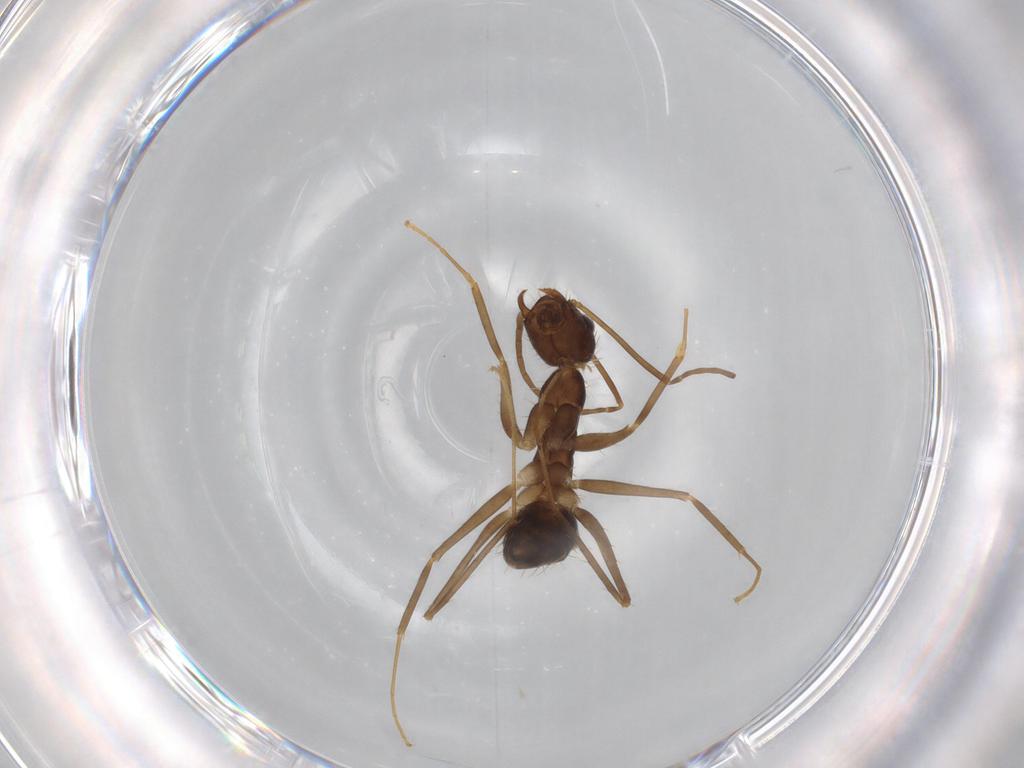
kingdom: Animalia
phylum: Arthropoda
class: Insecta
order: Hymenoptera
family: Formicidae
